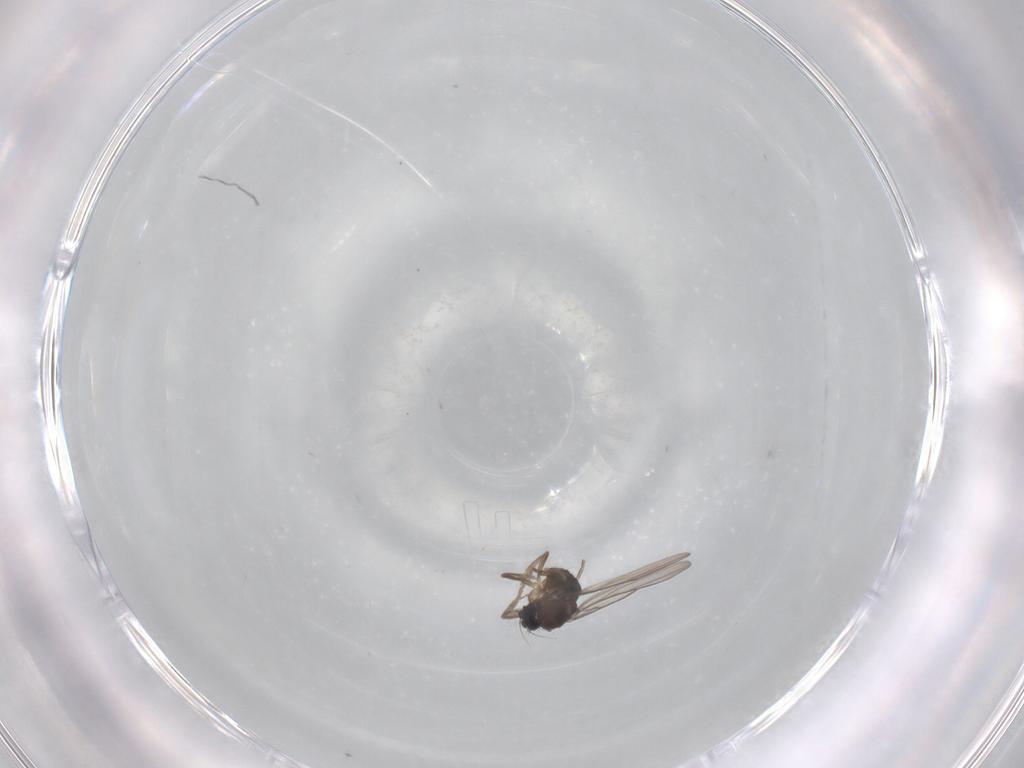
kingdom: Animalia
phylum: Arthropoda
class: Insecta
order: Diptera
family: Phoridae
